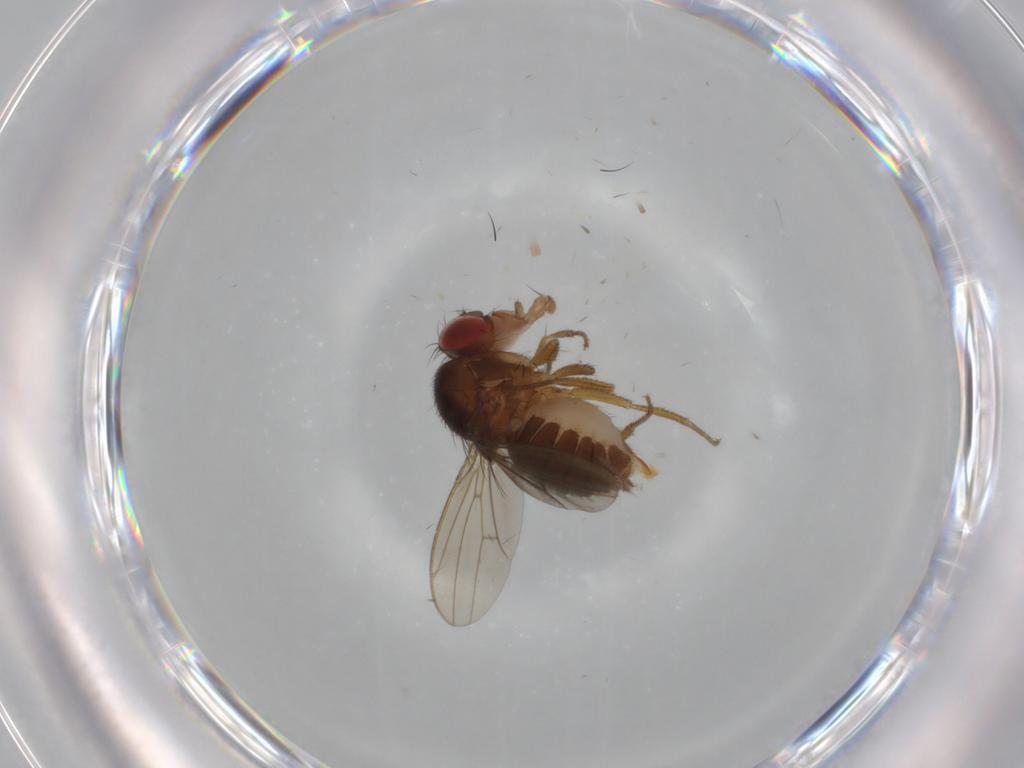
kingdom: Animalia
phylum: Arthropoda
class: Insecta
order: Diptera
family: Drosophilidae
